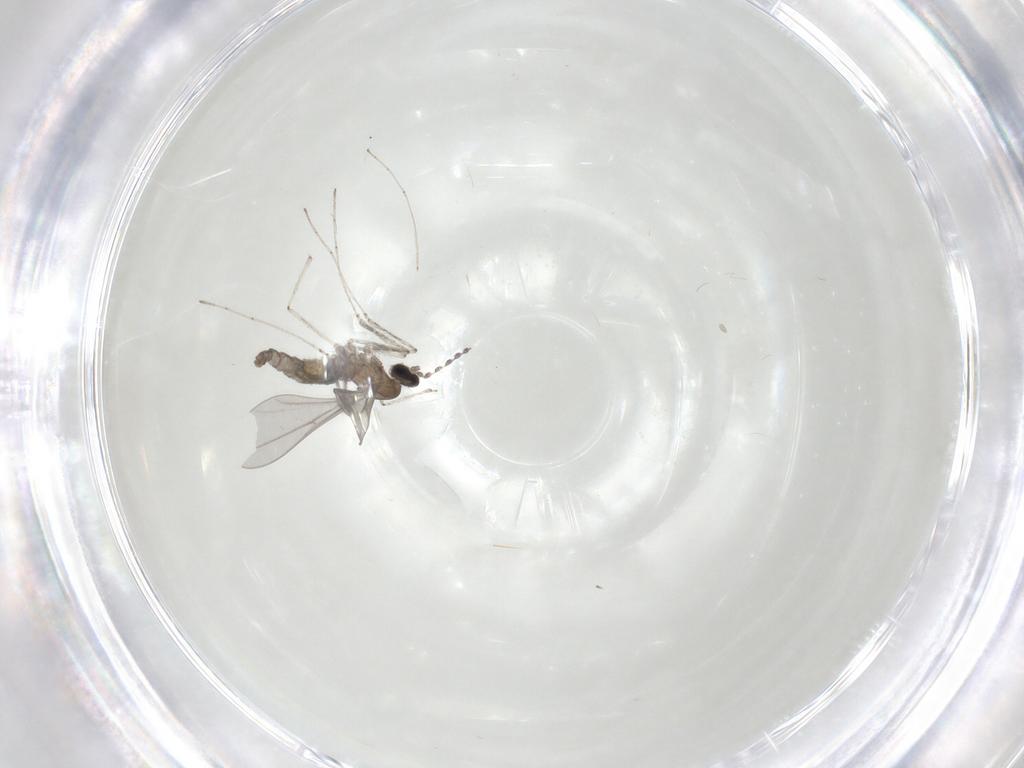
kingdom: Animalia
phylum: Arthropoda
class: Insecta
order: Diptera
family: Cecidomyiidae
